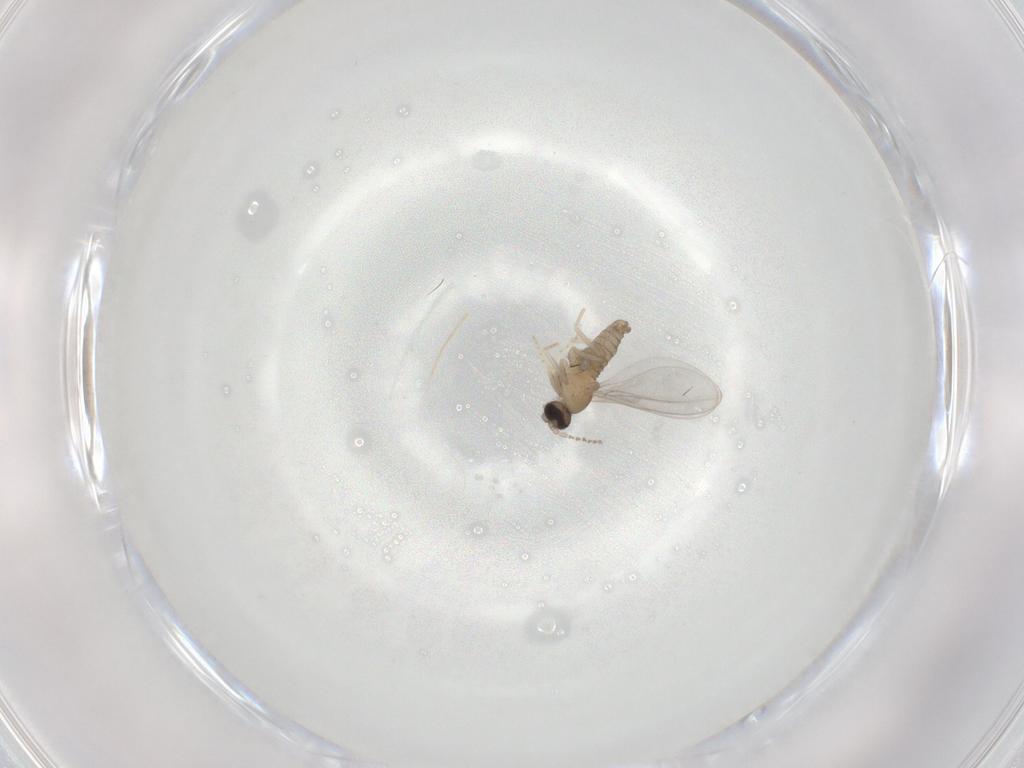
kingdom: Animalia
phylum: Arthropoda
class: Insecta
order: Diptera
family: Cecidomyiidae
